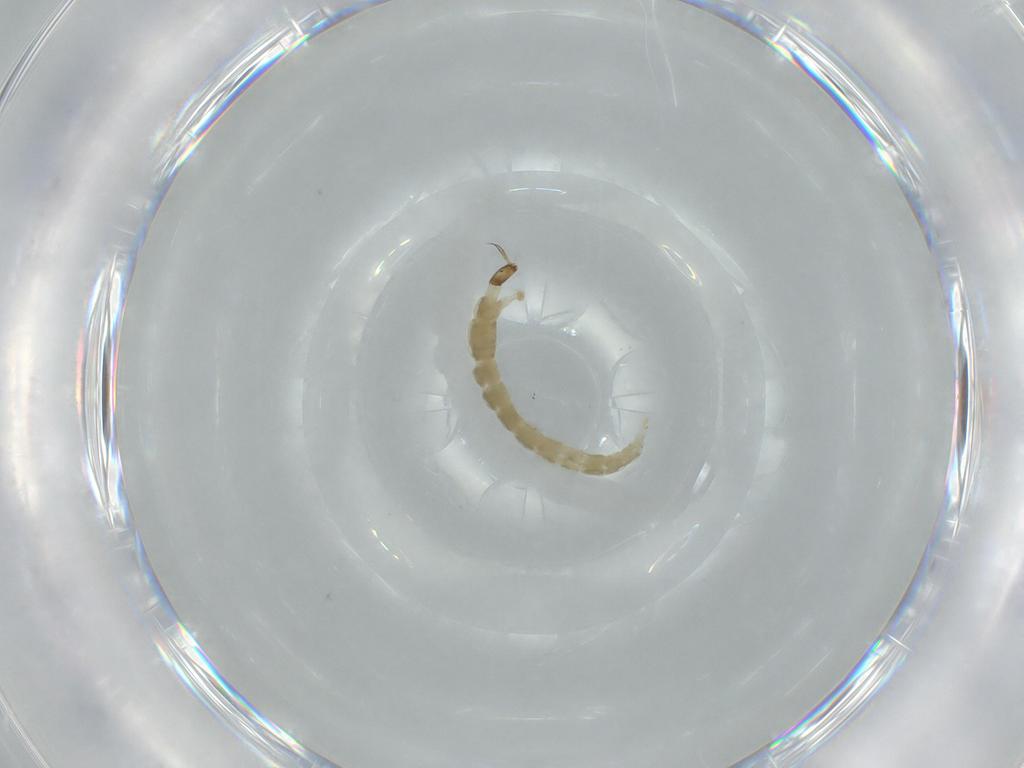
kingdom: Animalia
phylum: Arthropoda
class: Insecta
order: Diptera
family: Chironomidae
